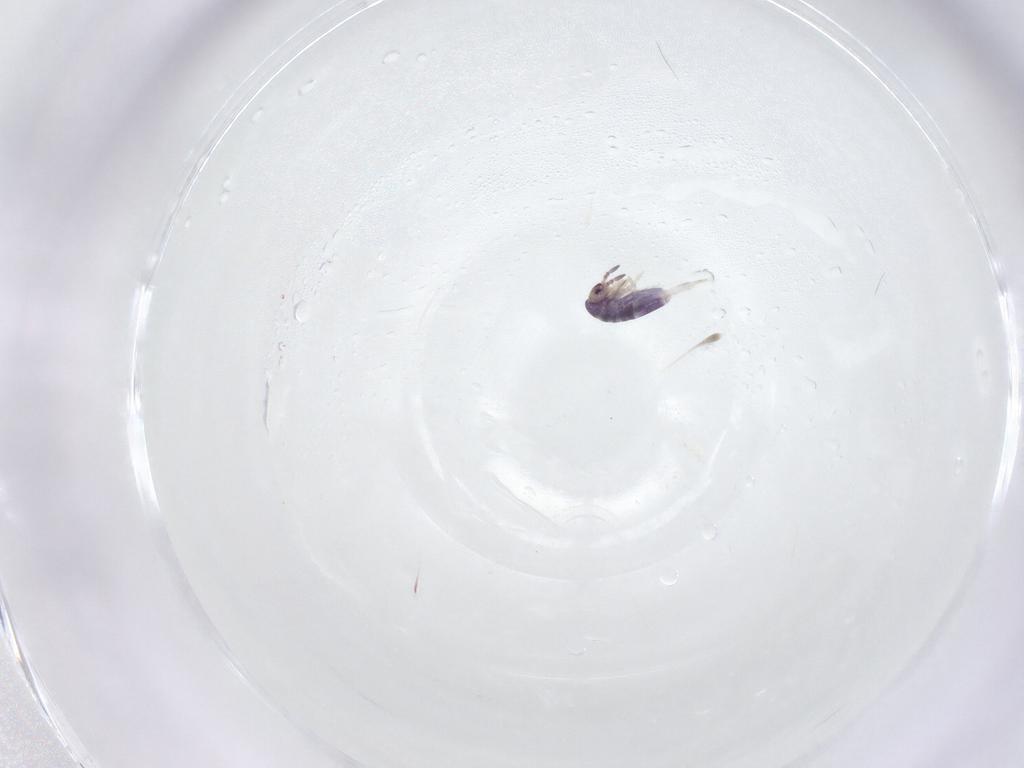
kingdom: Animalia
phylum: Arthropoda
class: Collembola
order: Entomobryomorpha
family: Entomobryidae
